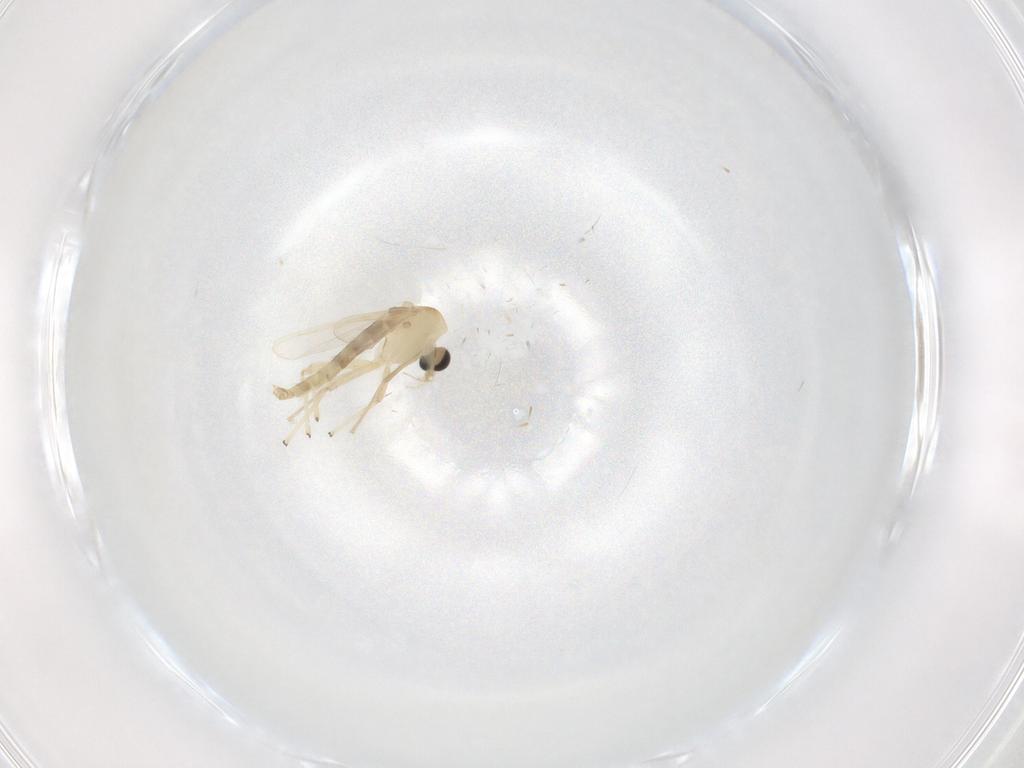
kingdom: Animalia
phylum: Arthropoda
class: Insecta
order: Diptera
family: Chironomidae
